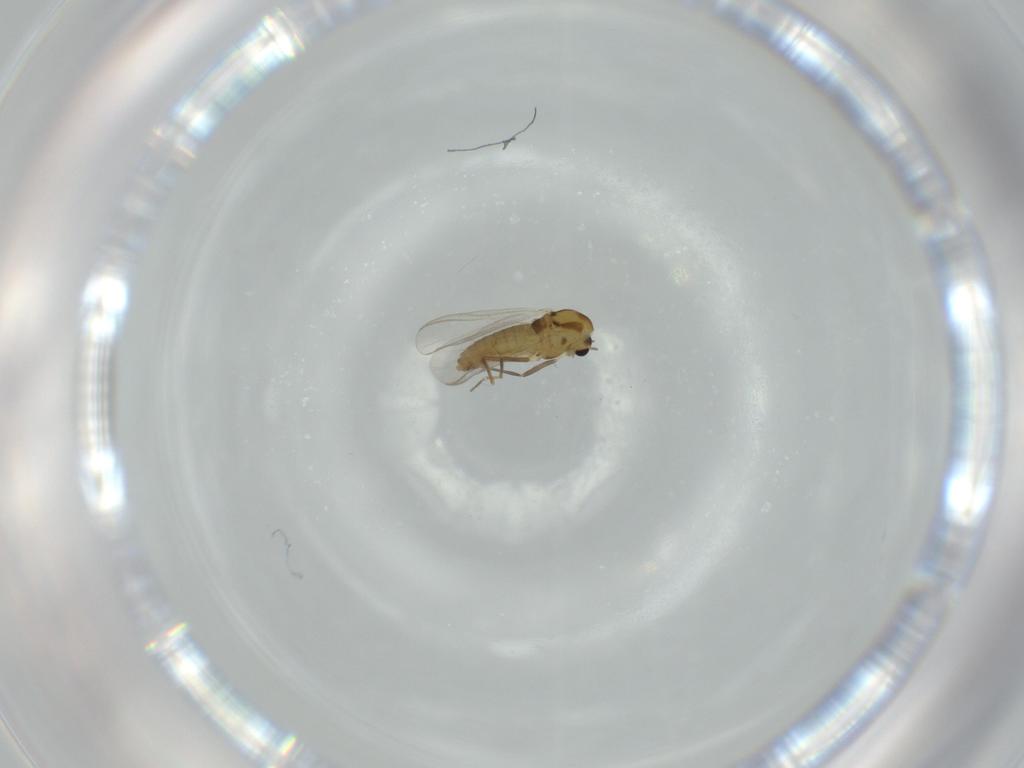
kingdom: Animalia
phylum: Arthropoda
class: Insecta
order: Diptera
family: Chironomidae
